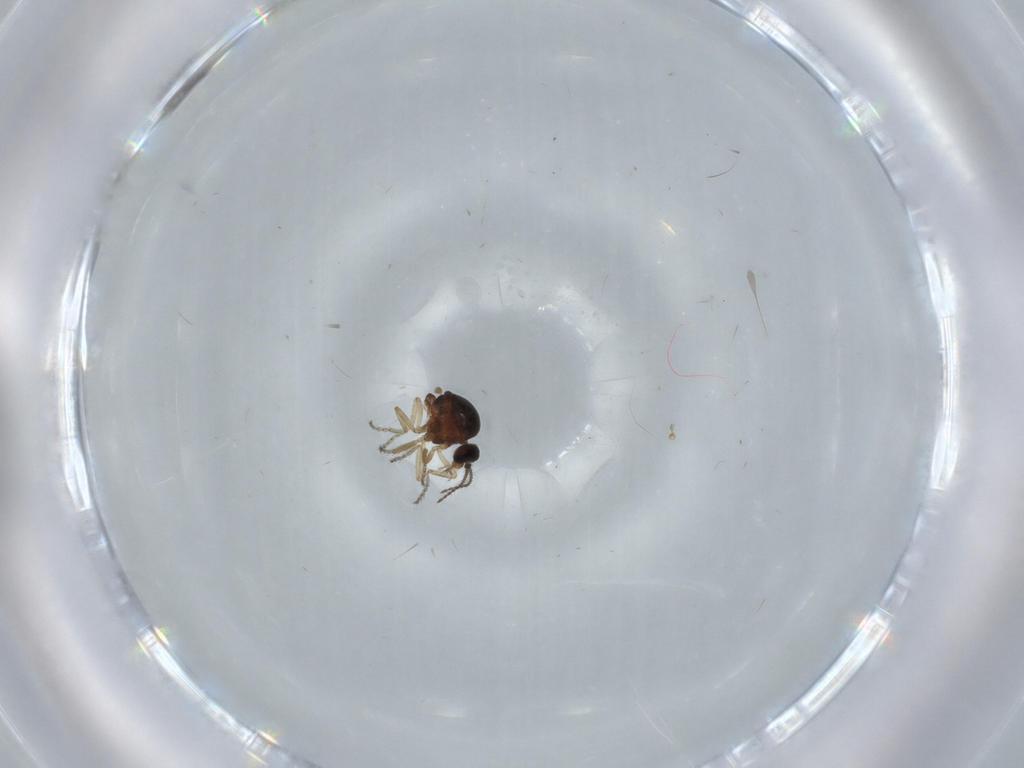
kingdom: Animalia
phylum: Arthropoda
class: Insecta
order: Diptera
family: Ceratopogonidae
